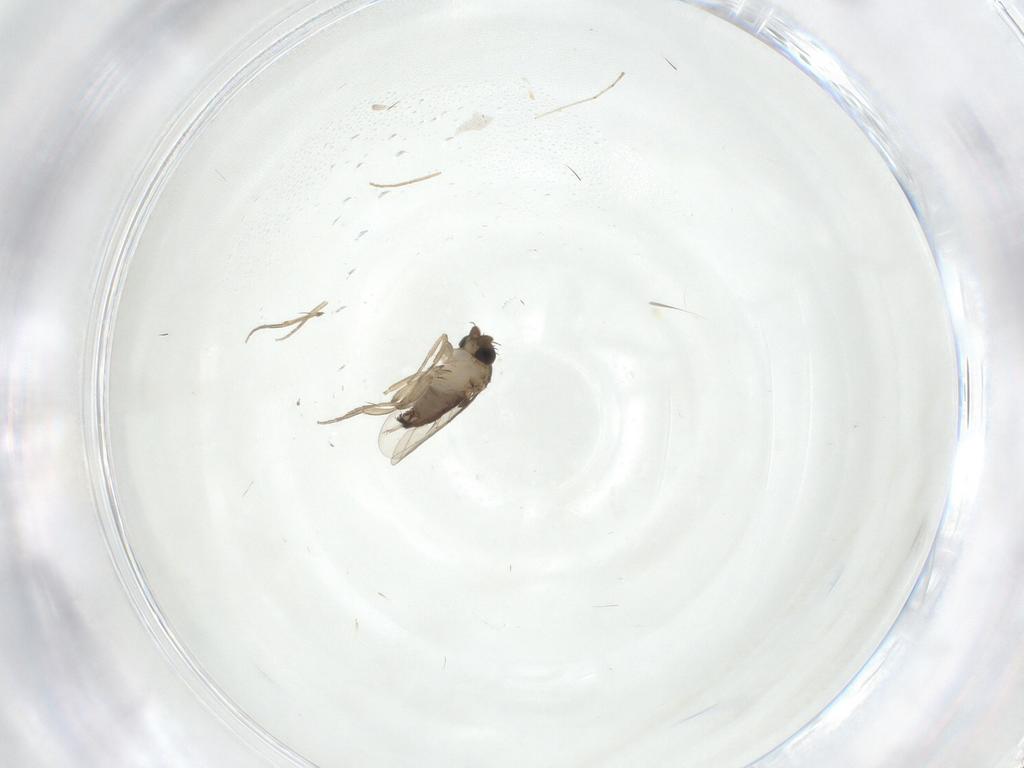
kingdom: Animalia
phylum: Arthropoda
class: Insecta
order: Diptera
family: Phoridae
